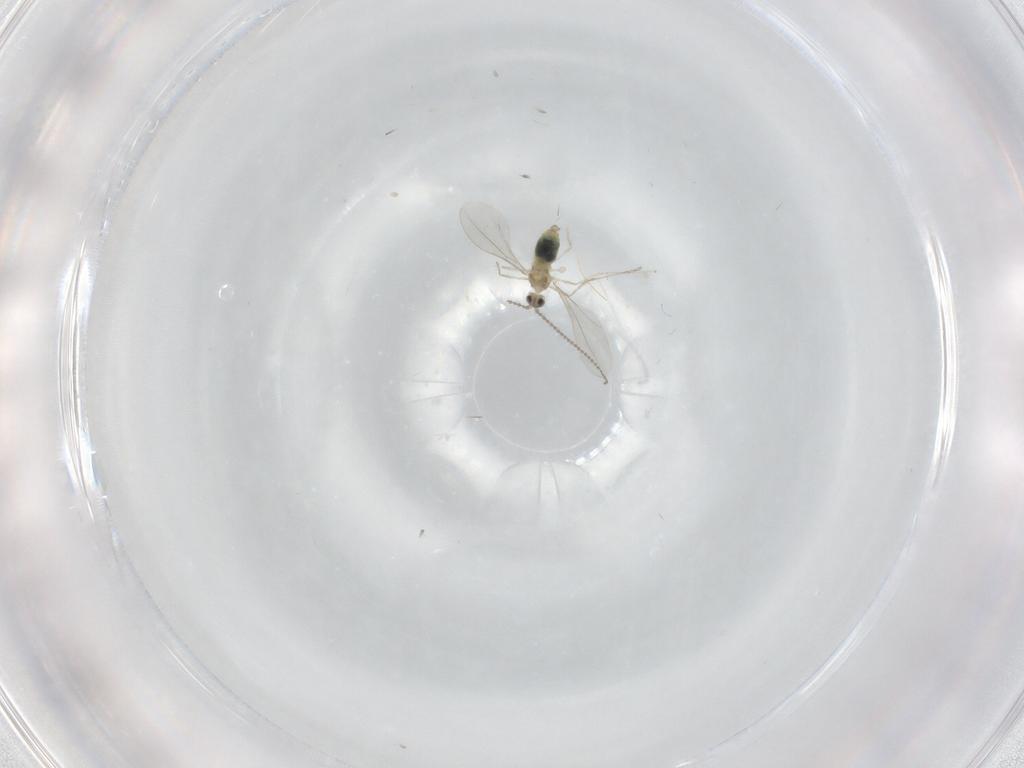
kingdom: Animalia
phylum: Arthropoda
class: Insecta
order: Diptera
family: Cecidomyiidae
